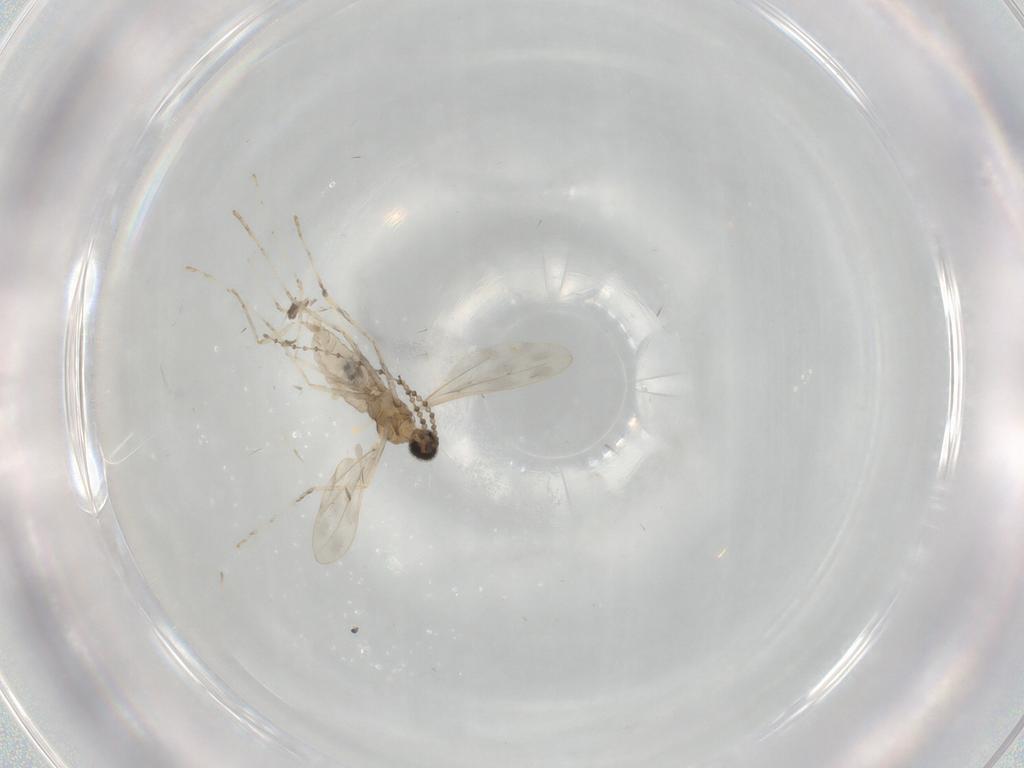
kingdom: Animalia
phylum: Arthropoda
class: Insecta
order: Diptera
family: Cecidomyiidae
